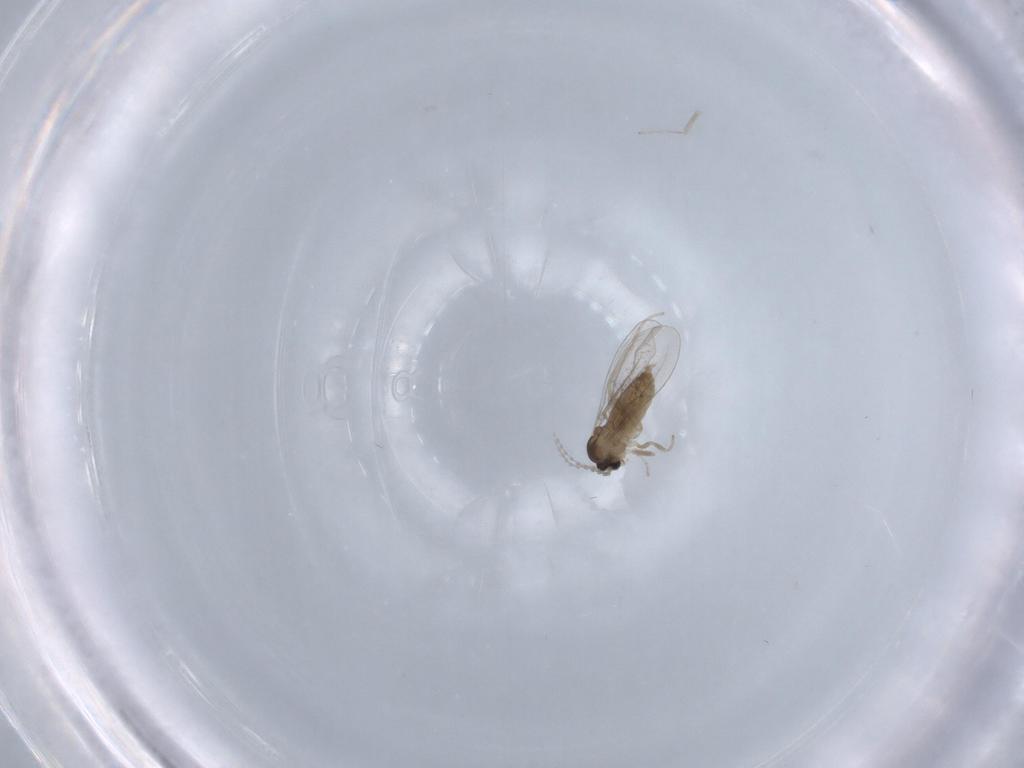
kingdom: Animalia
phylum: Arthropoda
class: Insecta
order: Diptera
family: Cecidomyiidae
